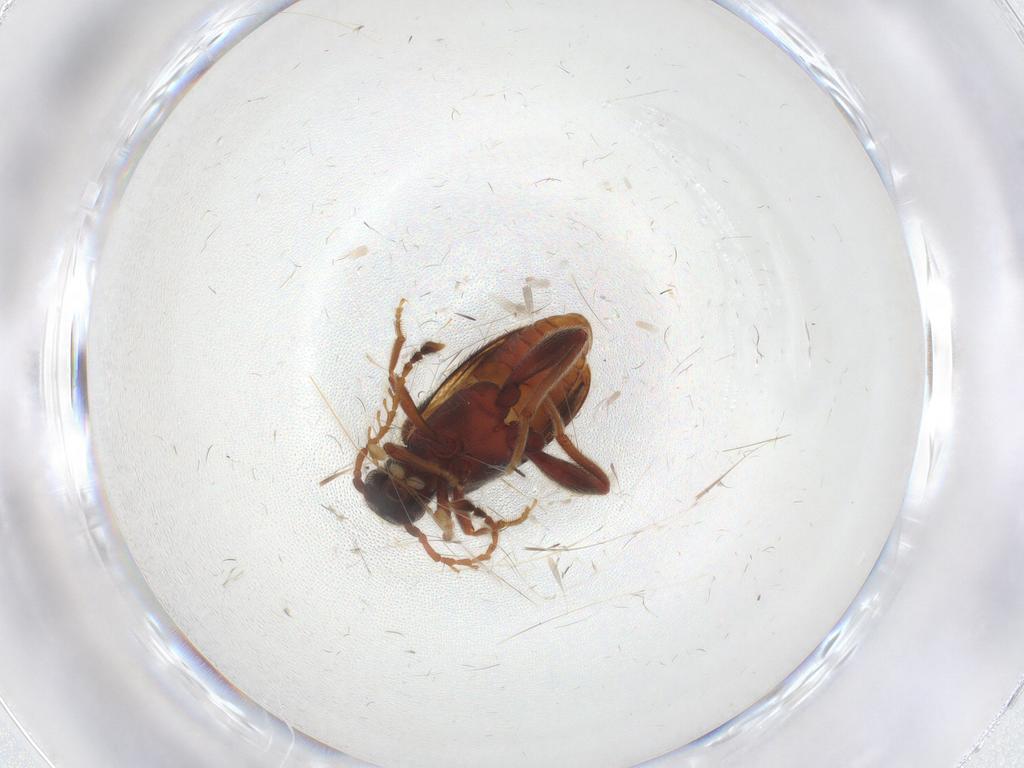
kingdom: Animalia
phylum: Arthropoda
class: Insecta
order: Coleoptera
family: Aderidae
